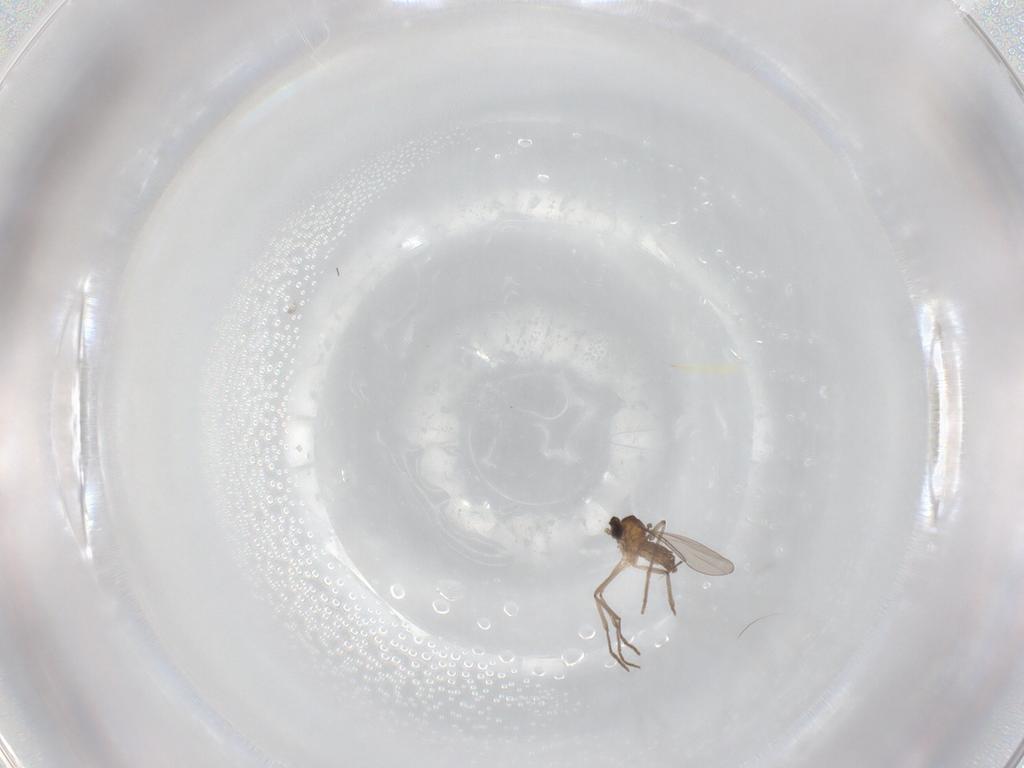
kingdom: Animalia
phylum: Arthropoda
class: Insecta
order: Diptera
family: Cecidomyiidae
